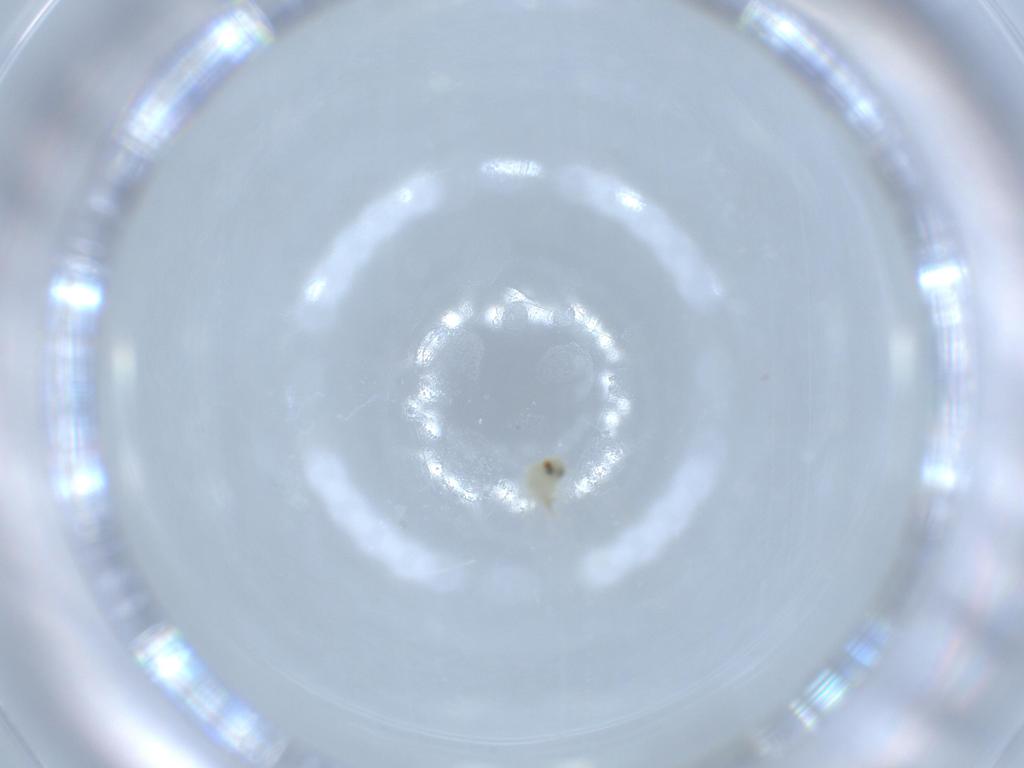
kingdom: Animalia
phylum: Arthropoda
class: Insecta
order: Hemiptera
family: Aleyrodidae
